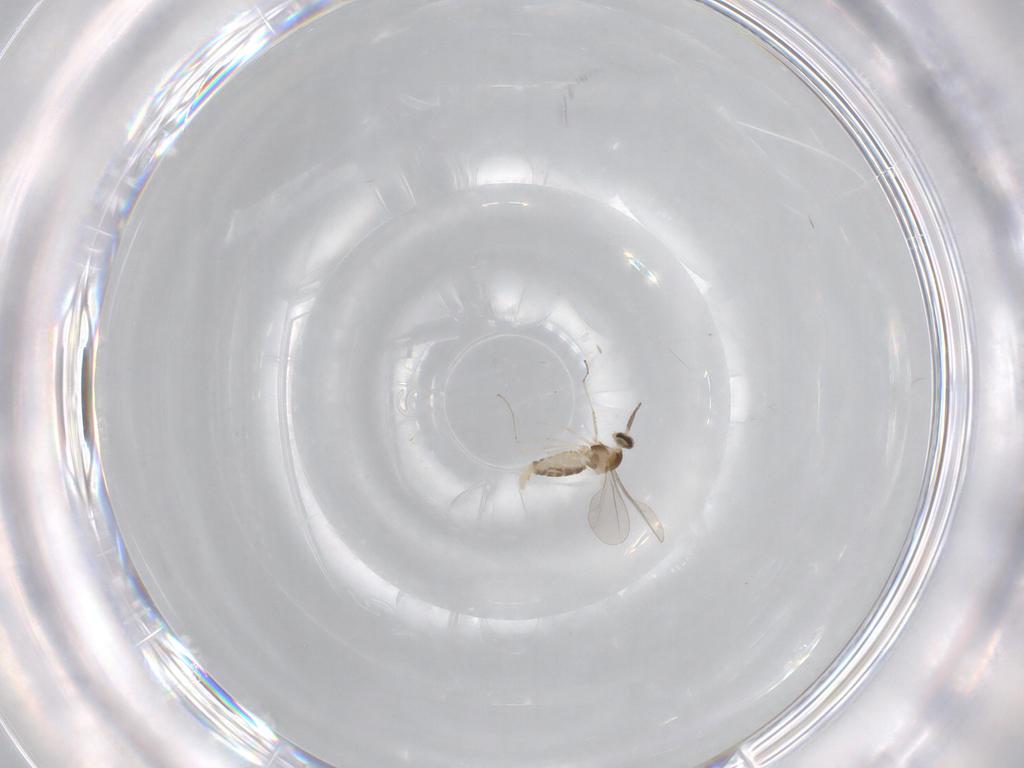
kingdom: Animalia
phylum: Arthropoda
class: Insecta
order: Diptera
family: Cecidomyiidae
